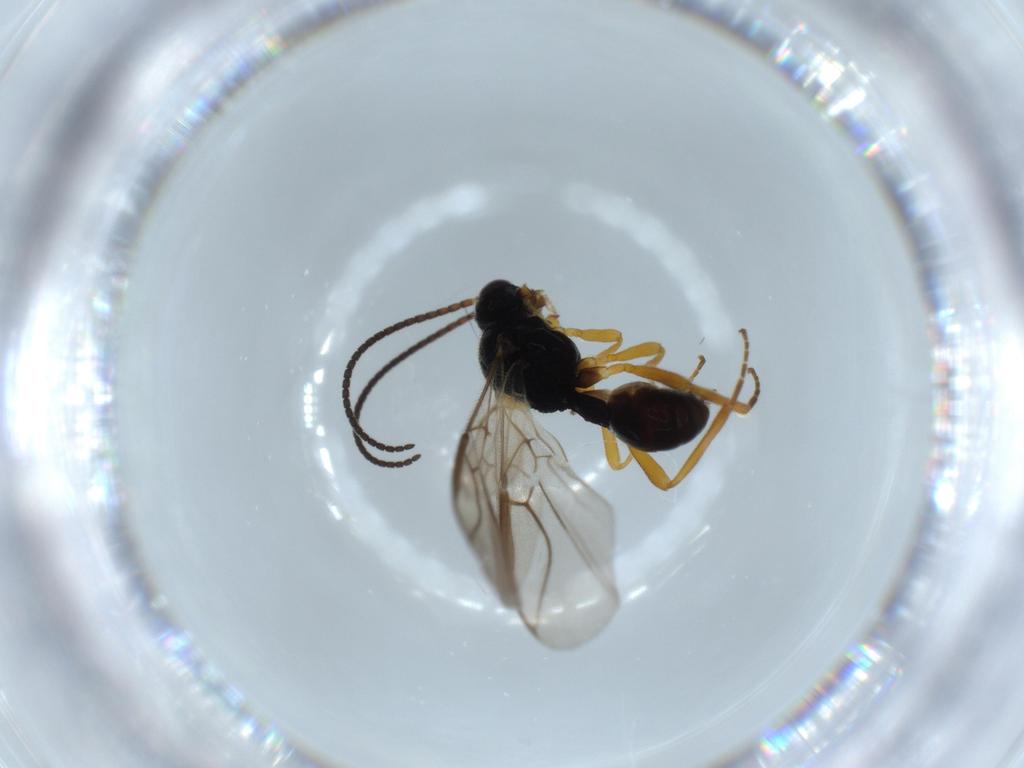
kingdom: Animalia
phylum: Arthropoda
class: Insecta
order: Hymenoptera
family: Braconidae
